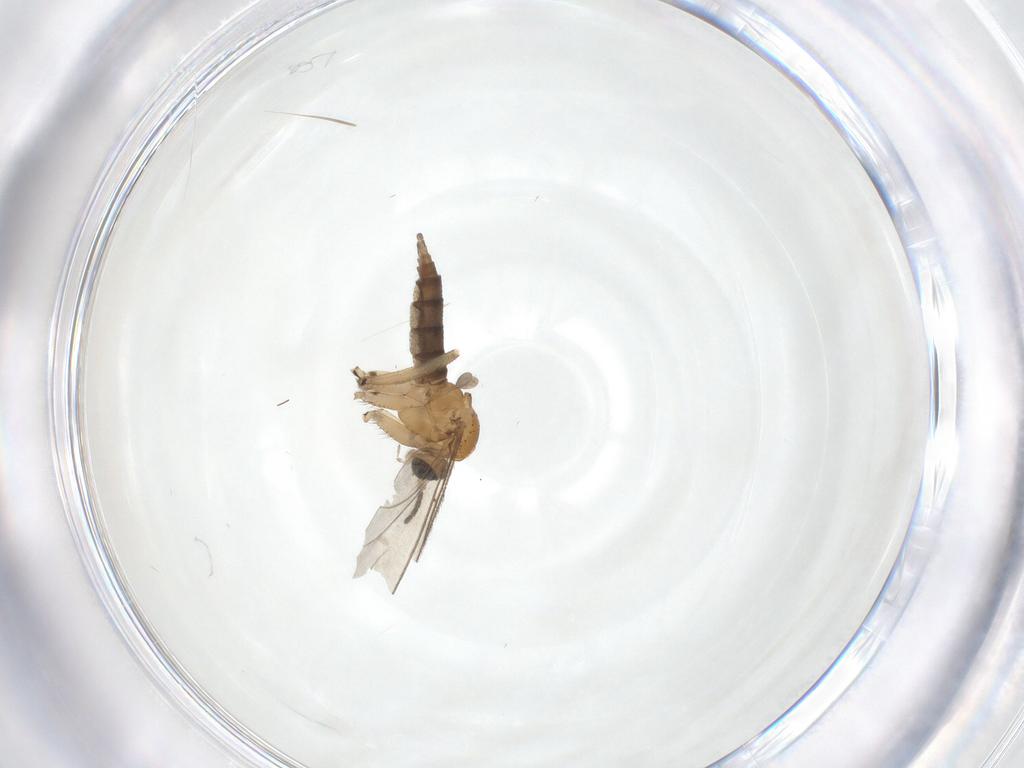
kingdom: Animalia
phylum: Arthropoda
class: Insecta
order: Diptera
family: Sciaridae
